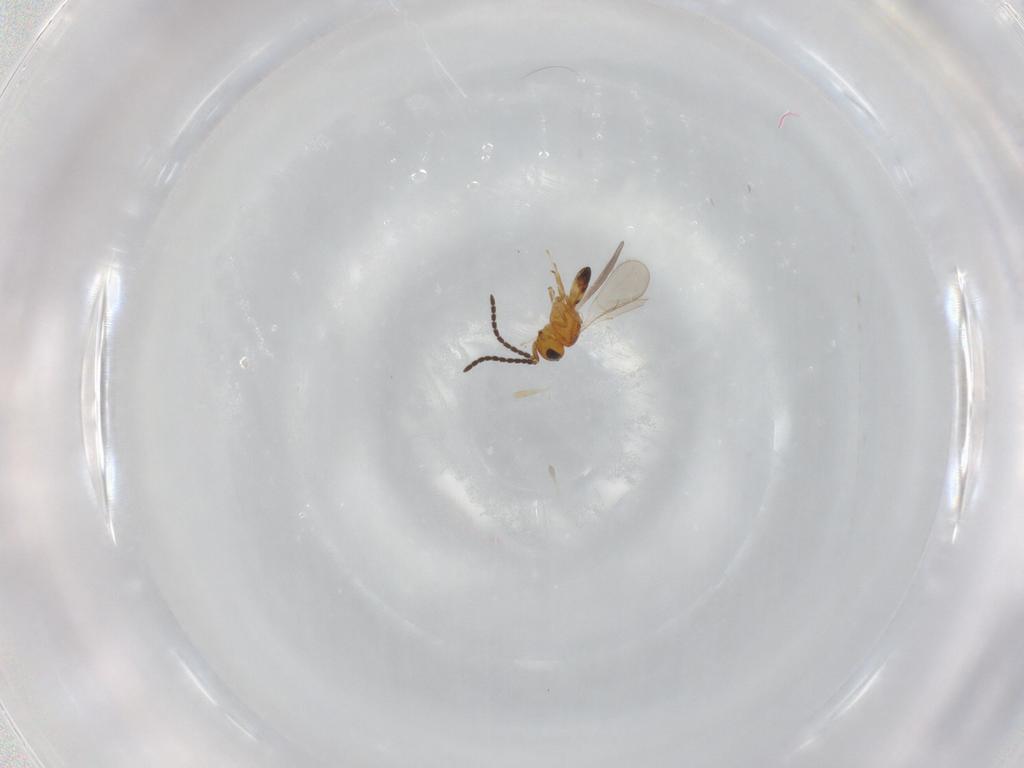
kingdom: Animalia
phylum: Arthropoda
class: Insecta
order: Hymenoptera
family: Scelionidae
